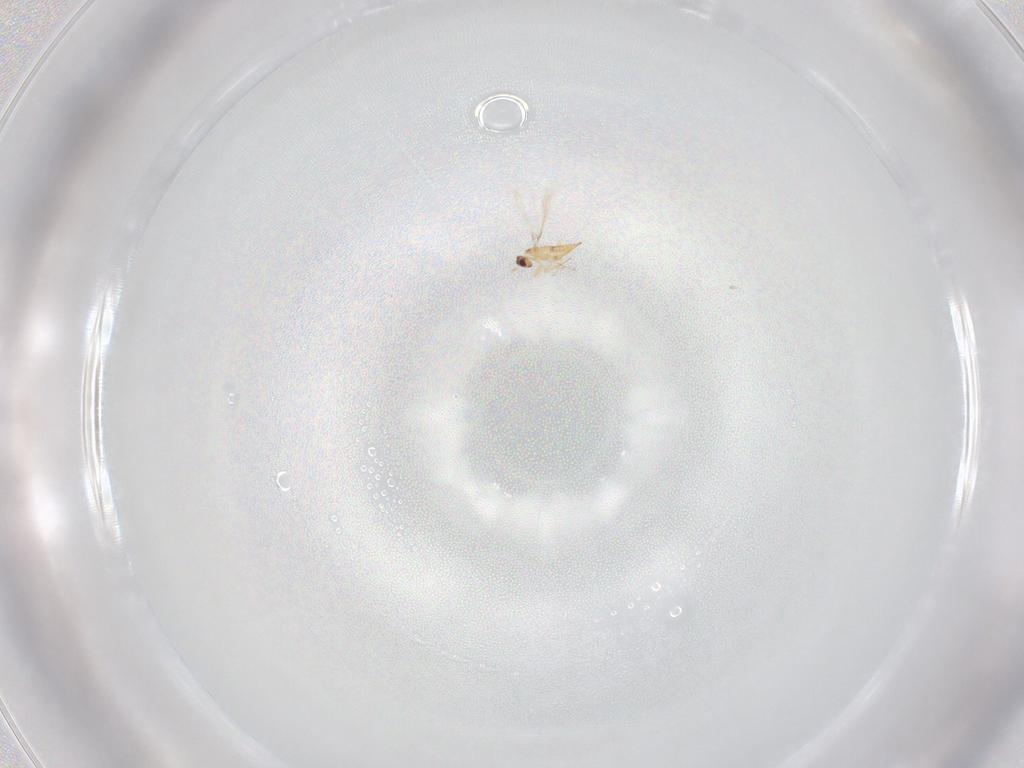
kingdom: Animalia
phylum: Arthropoda
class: Insecta
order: Hymenoptera
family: Mymaridae
